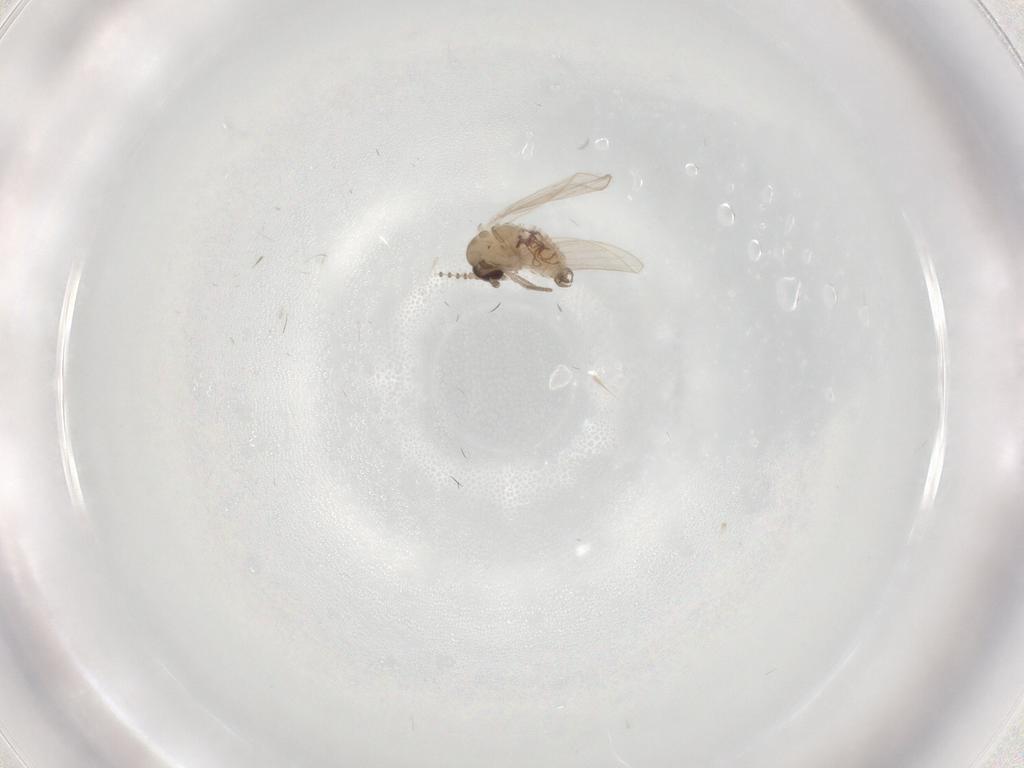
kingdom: Animalia
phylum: Arthropoda
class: Insecta
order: Diptera
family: Psychodidae
